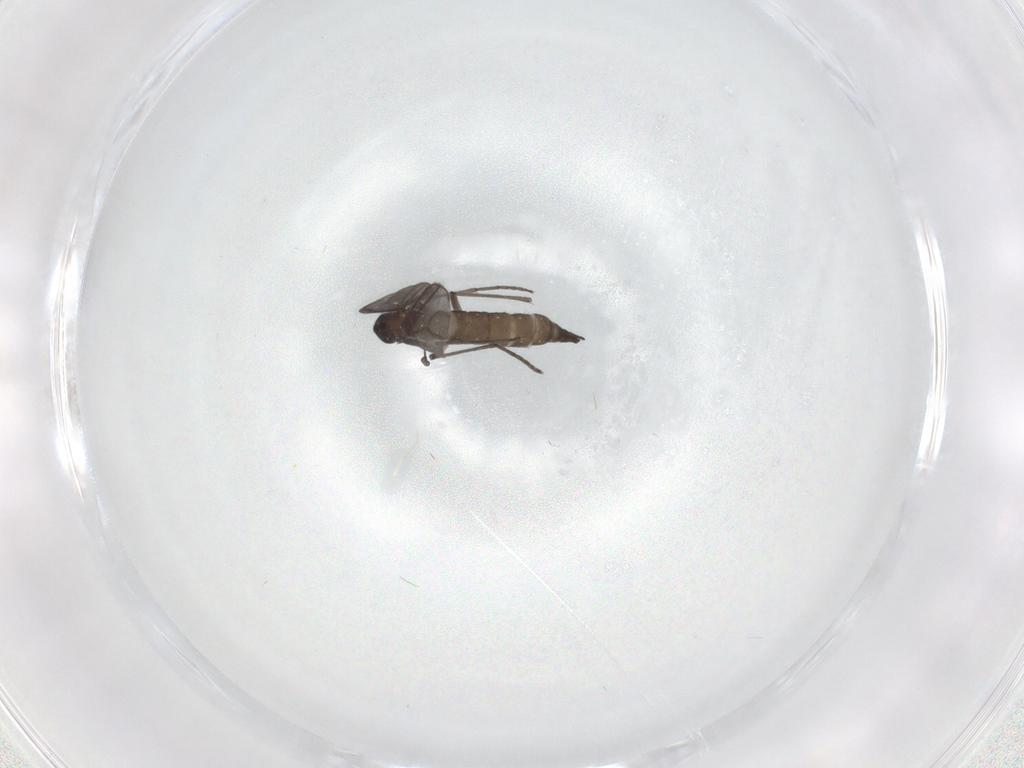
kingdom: Animalia
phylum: Arthropoda
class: Insecta
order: Diptera
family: Sciaridae
